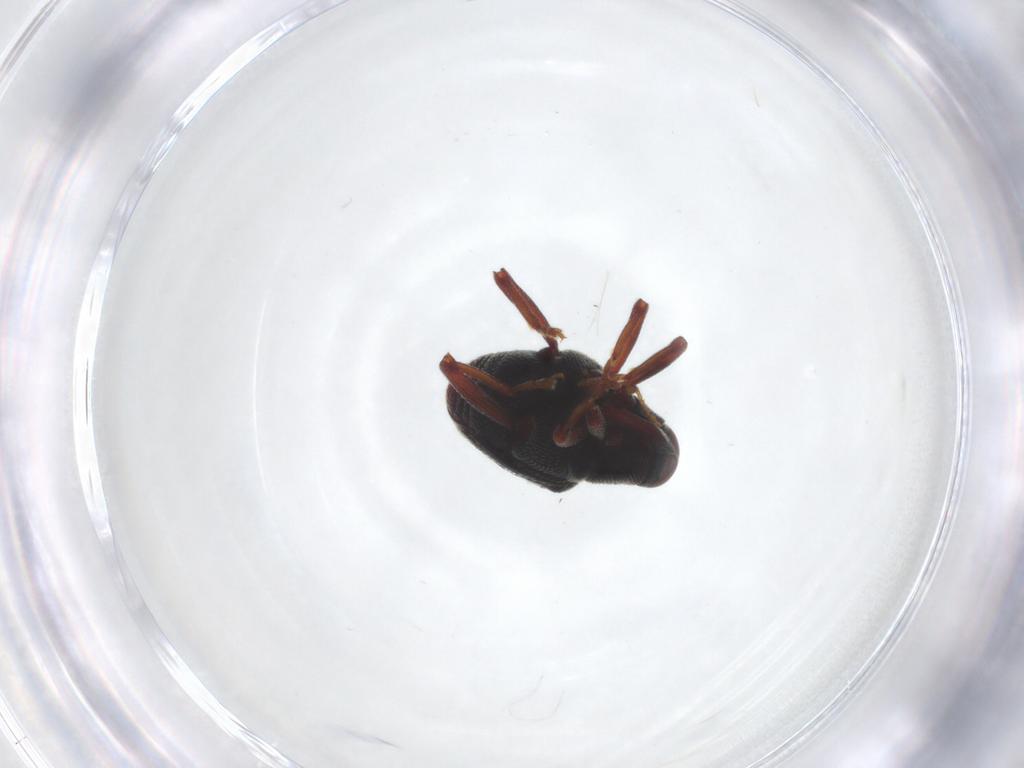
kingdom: Animalia
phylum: Arthropoda
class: Insecta
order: Coleoptera
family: Curculionidae
